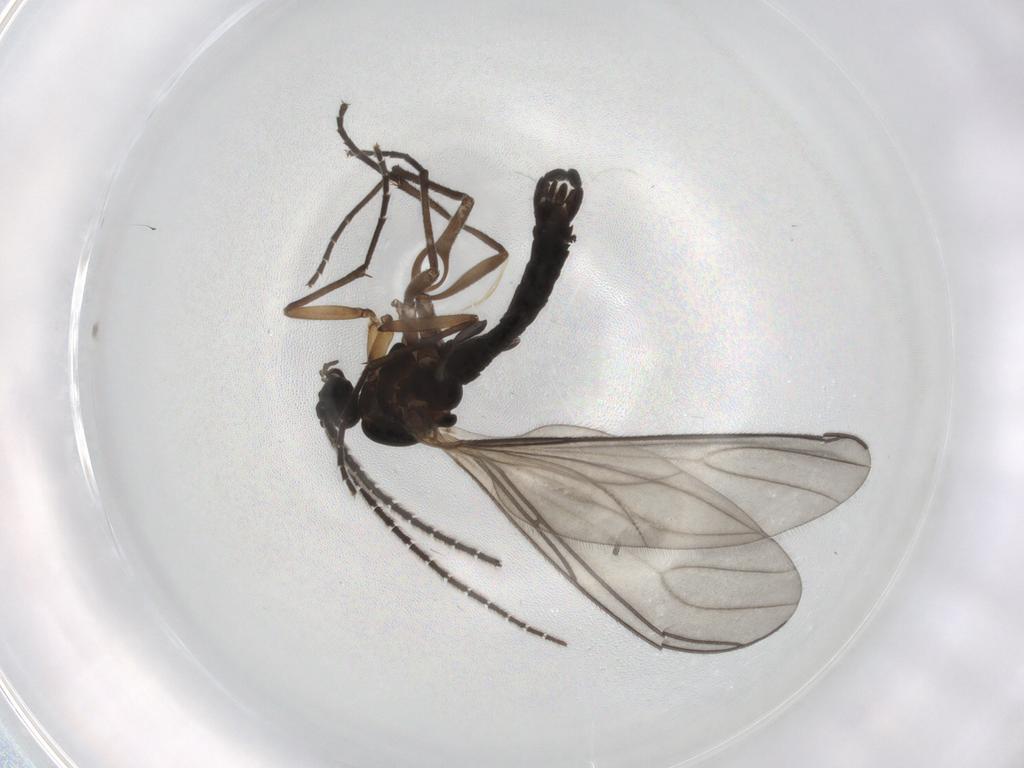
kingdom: Animalia
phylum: Arthropoda
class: Insecta
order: Diptera
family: Sciaridae
